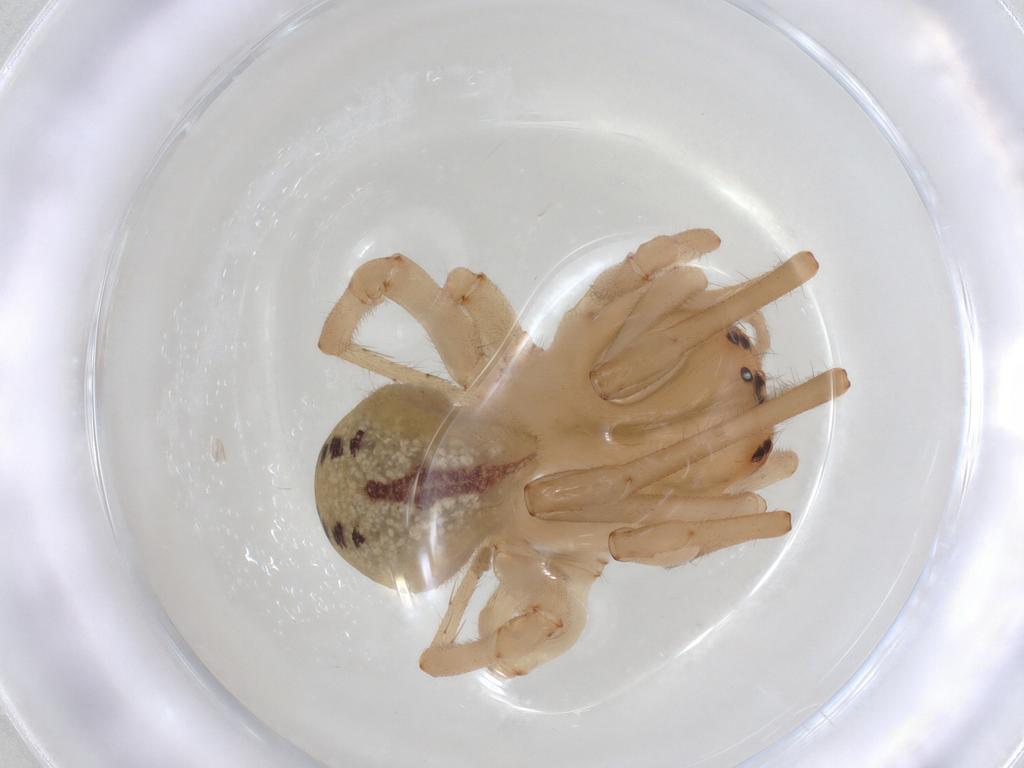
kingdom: Animalia
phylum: Arthropoda
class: Arachnida
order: Araneae
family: Cheiracanthiidae
